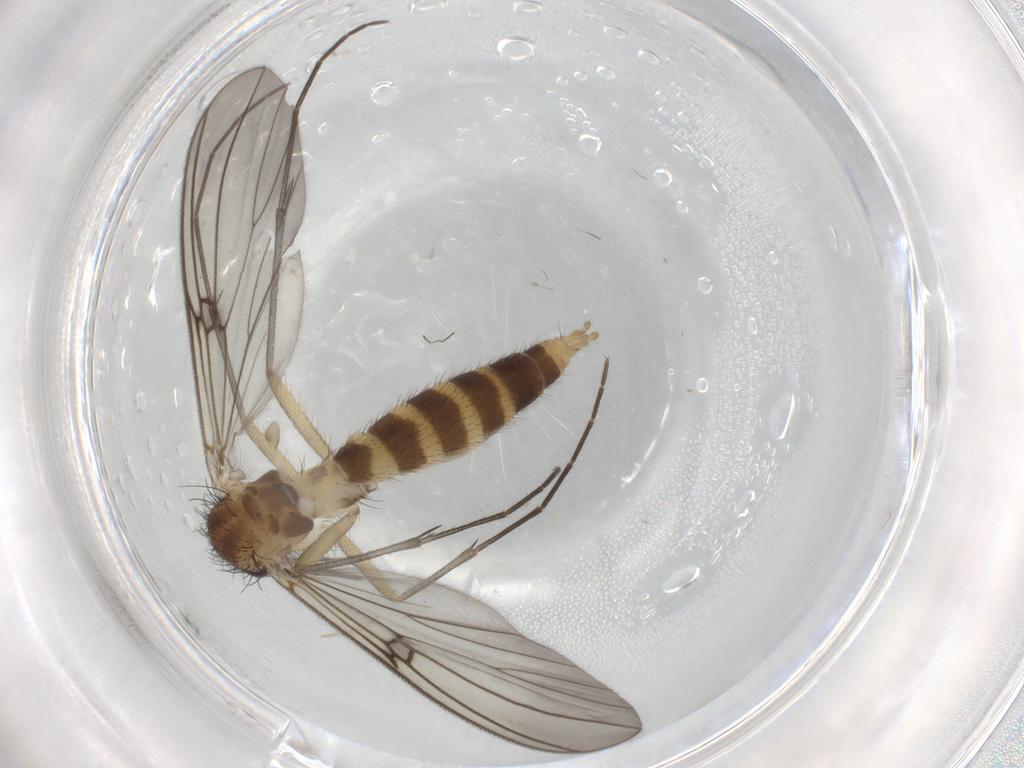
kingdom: Animalia
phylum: Arthropoda
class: Insecta
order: Diptera
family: Mycetophilidae
